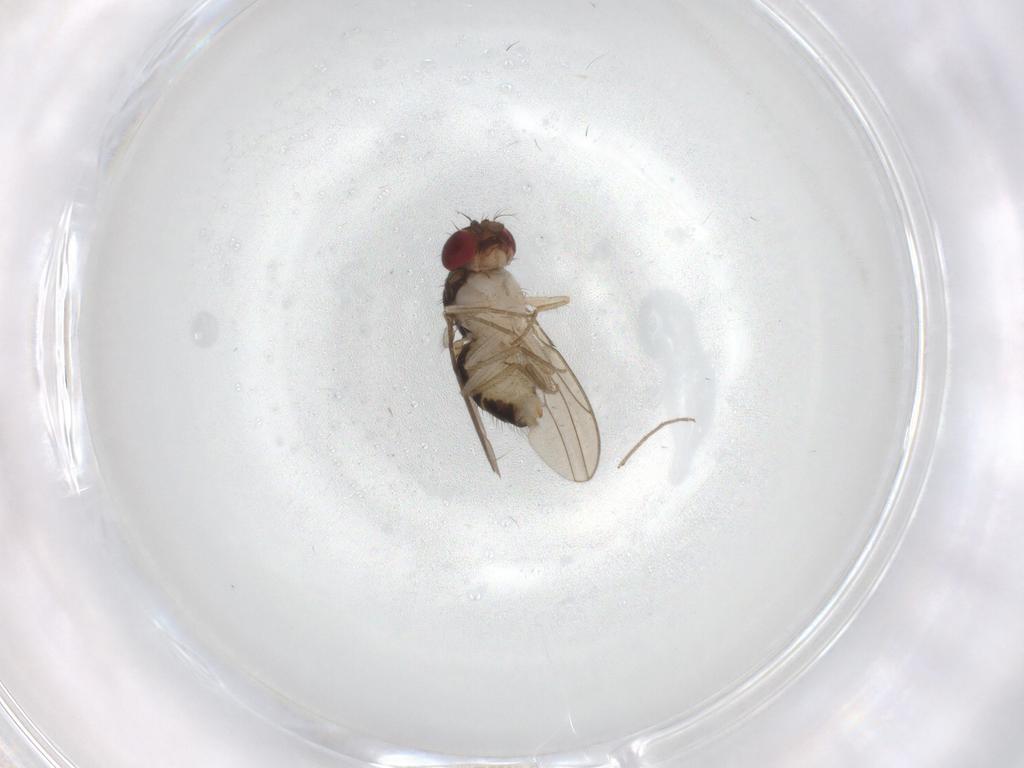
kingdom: Animalia
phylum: Arthropoda
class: Insecta
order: Diptera
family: Drosophilidae
